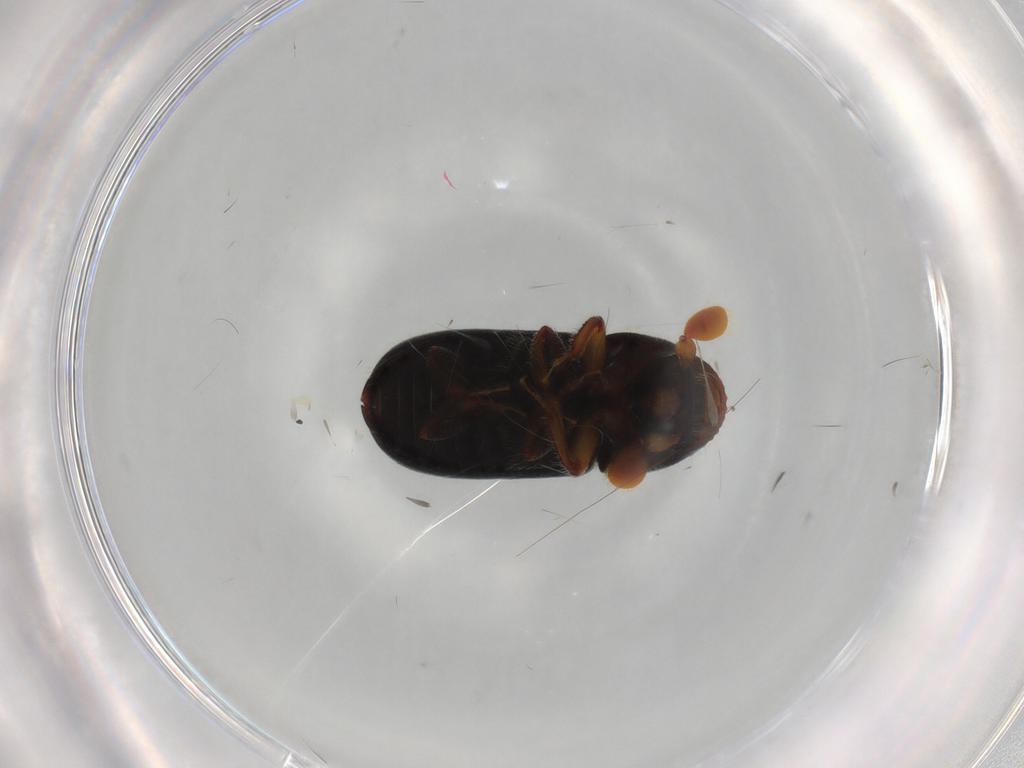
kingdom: Animalia
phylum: Arthropoda
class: Insecta
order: Coleoptera
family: Curculionidae
